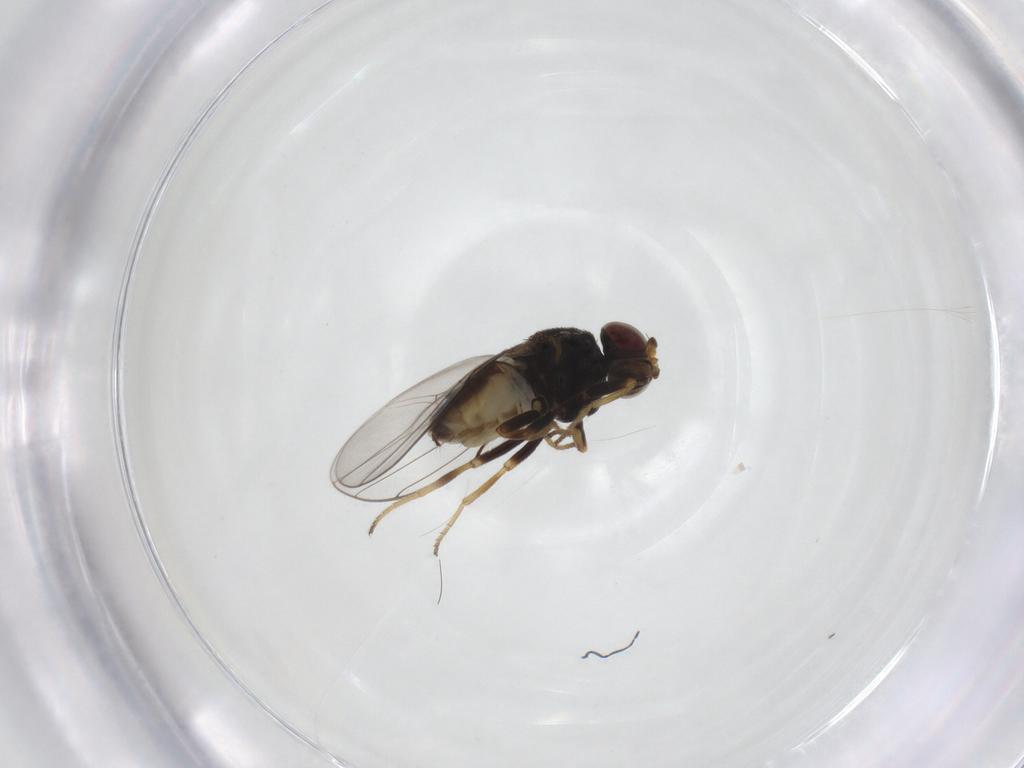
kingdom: Animalia
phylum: Arthropoda
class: Insecta
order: Diptera
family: Chloropidae
